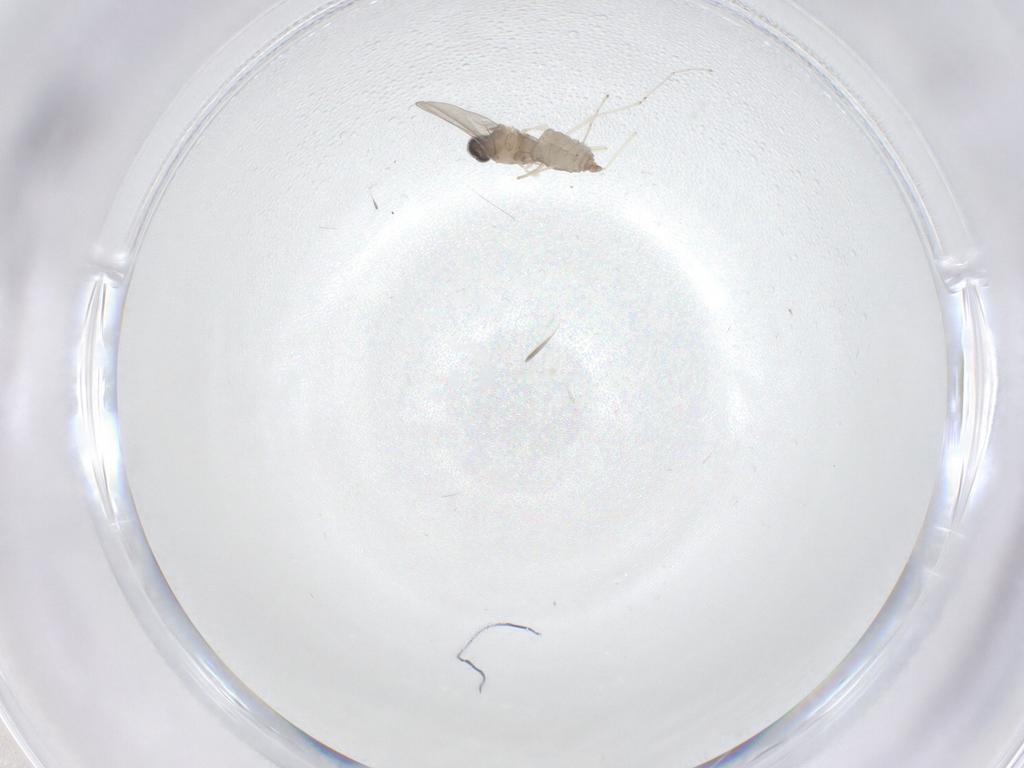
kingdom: Animalia
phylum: Arthropoda
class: Insecta
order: Diptera
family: Cecidomyiidae
